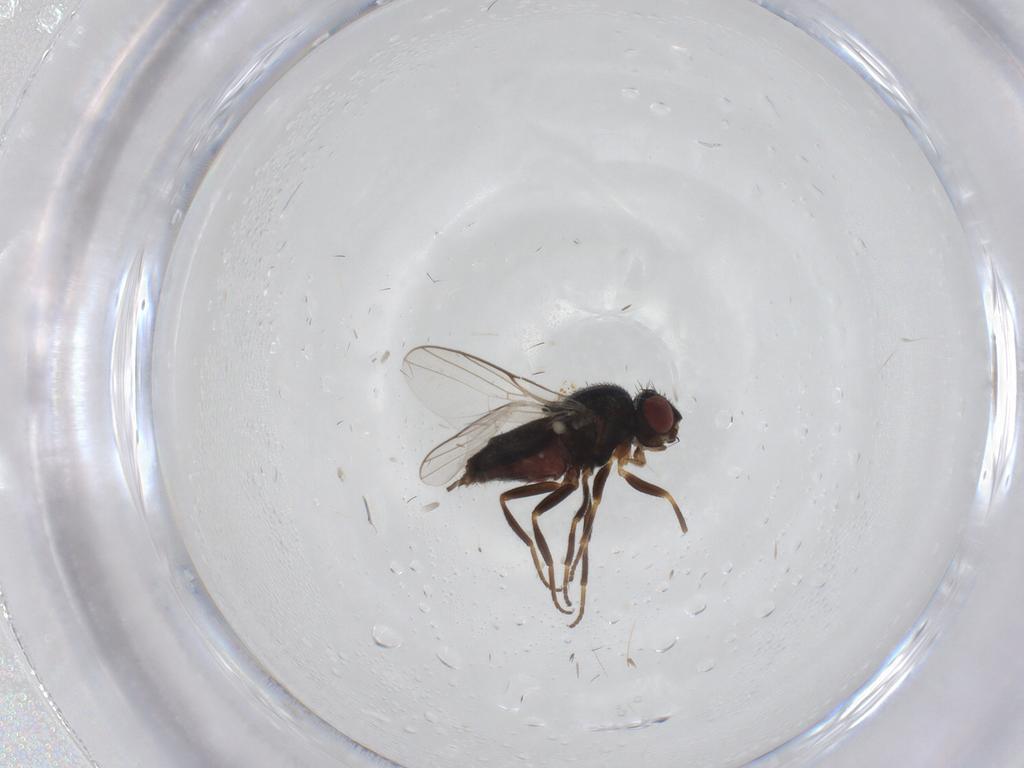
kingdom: Animalia
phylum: Arthropoda
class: Insecta
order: Diptera
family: Chloropidae
